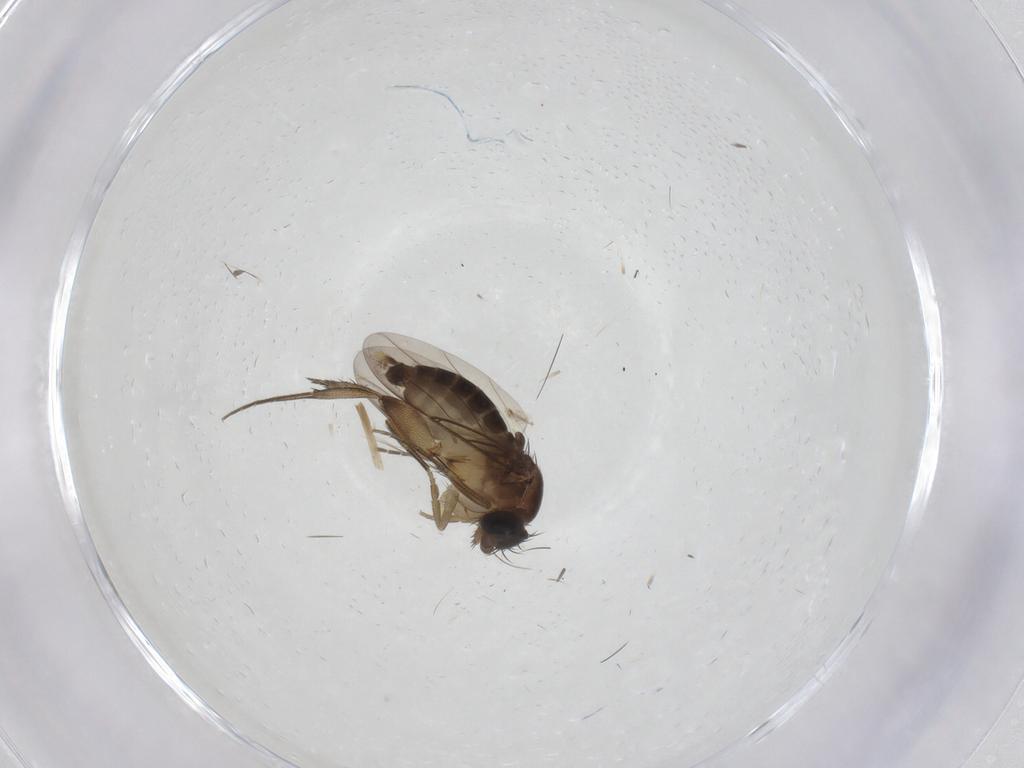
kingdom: Animalia
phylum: Arthropoda
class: Insecta
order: Diptera
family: Phoridae
